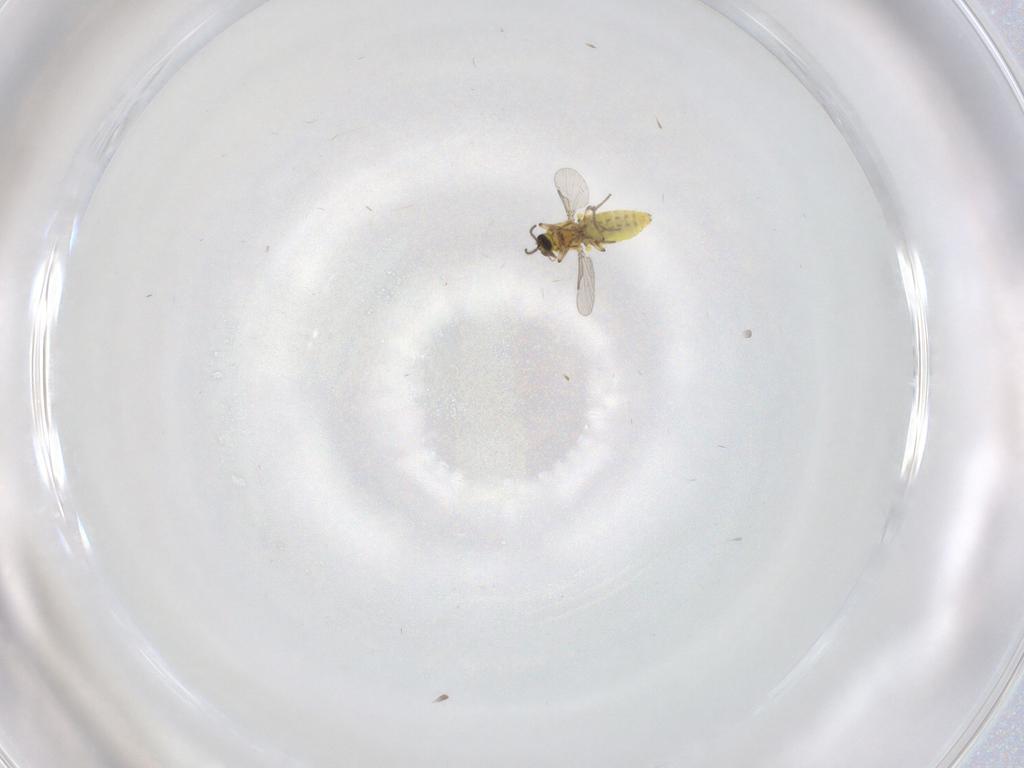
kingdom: Animalia
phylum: Arthropoda
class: Insecta
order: Diptera
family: Ceratopogonidae
